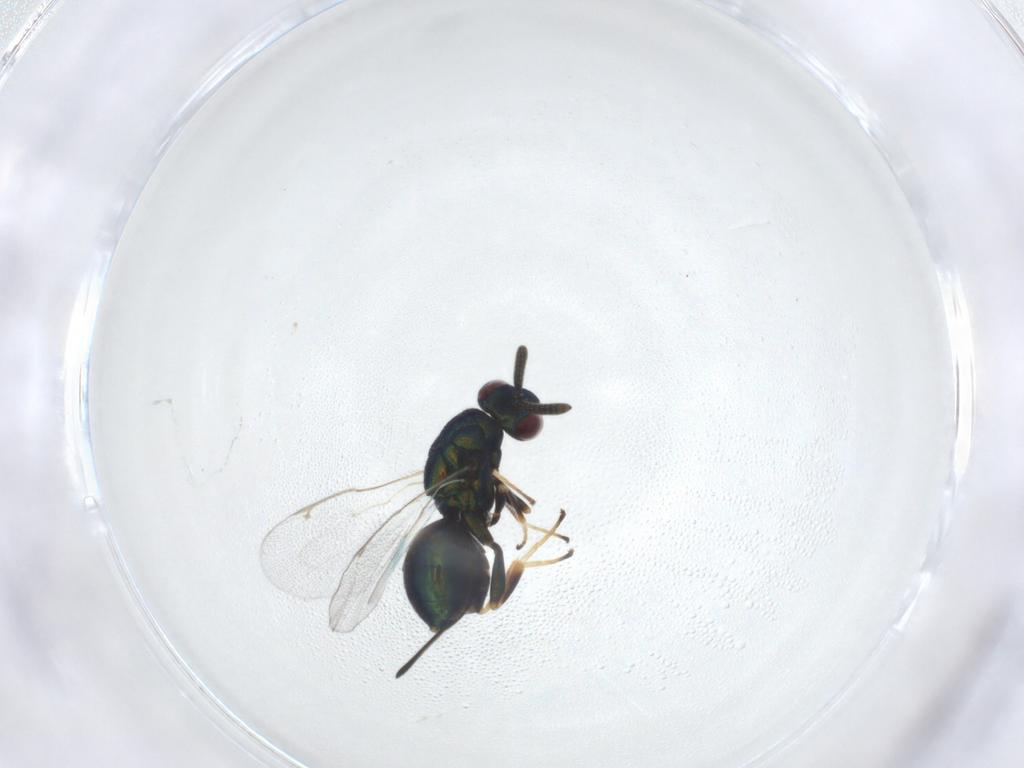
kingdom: Animalia
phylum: Arthropoda
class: Insecta
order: Hymenoptera
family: Torymidae
